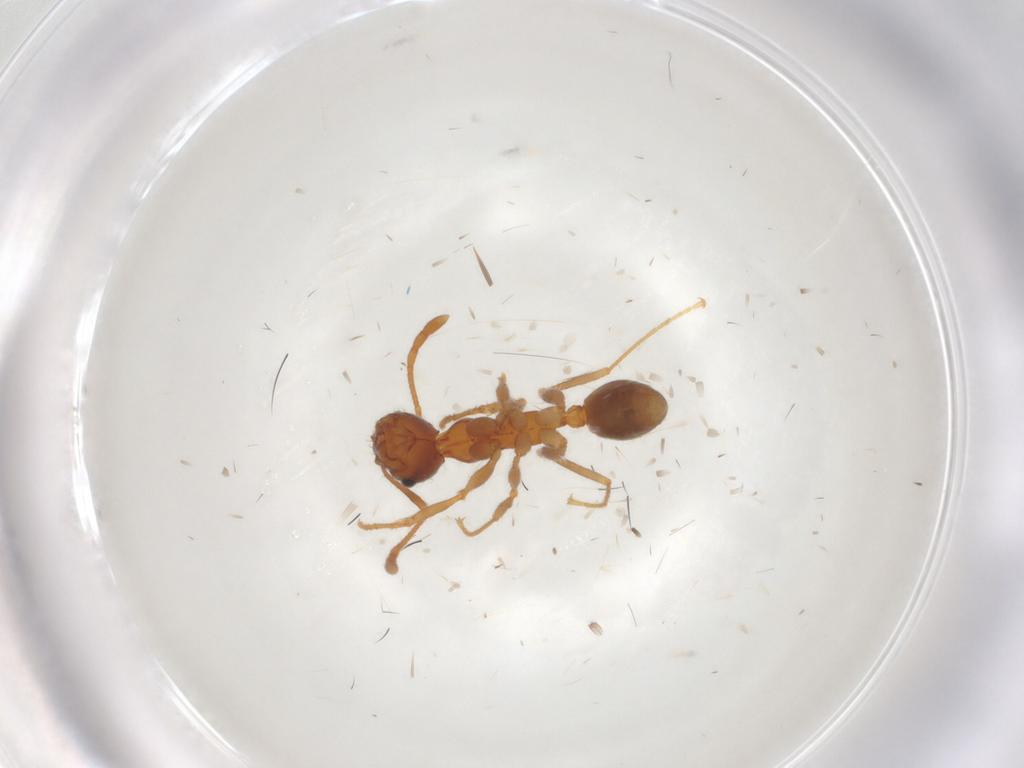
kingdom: Animalia
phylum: Arthropoda
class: Insecta
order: Hymenoptera
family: Formicidae
